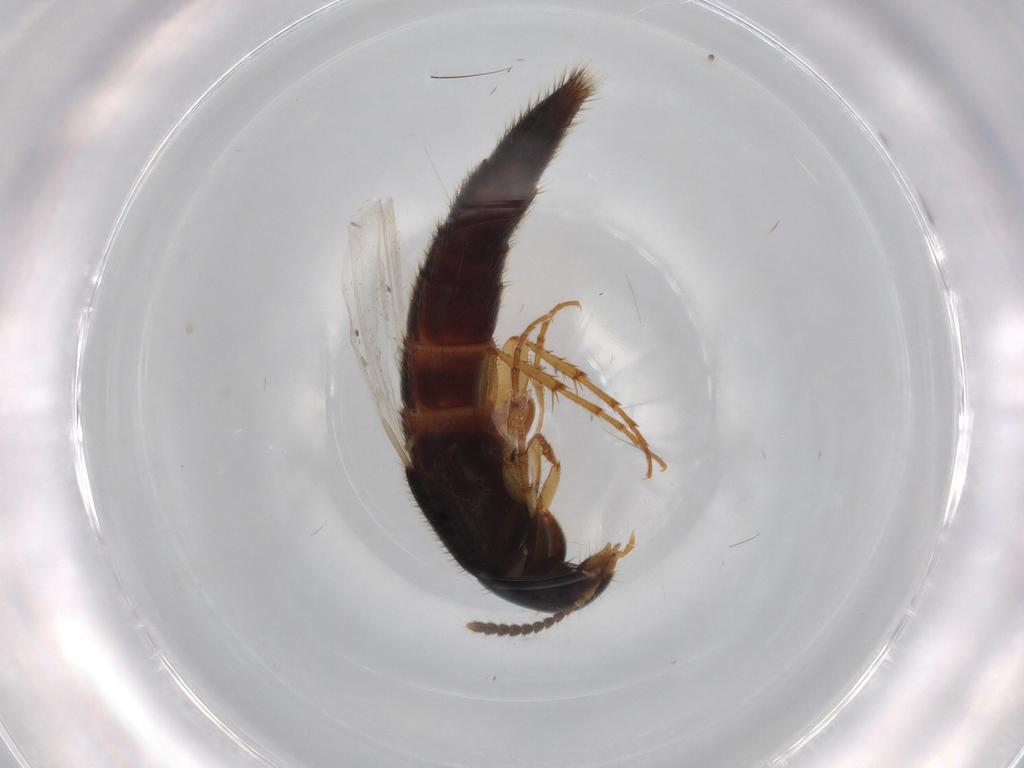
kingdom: Animalia
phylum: Arthropoda
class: Insecta
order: Coleoptera
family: Staphylinidae
